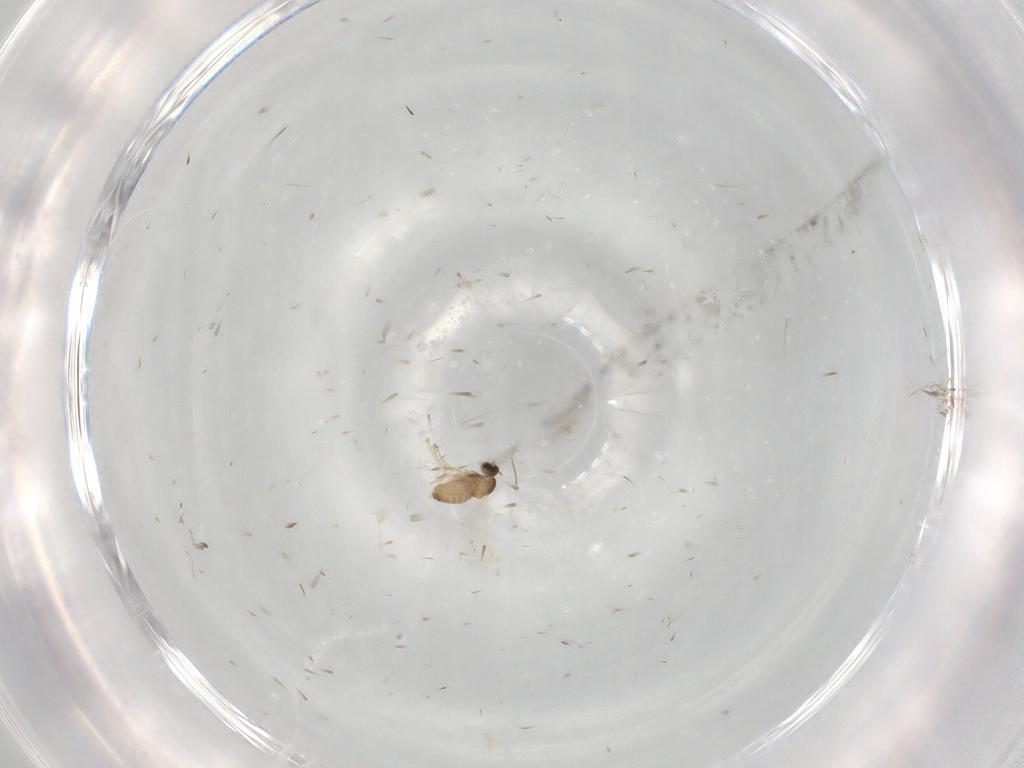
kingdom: Animalia
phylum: Arthropoda
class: Insecta
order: Diptera
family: Cecidomyiidae
